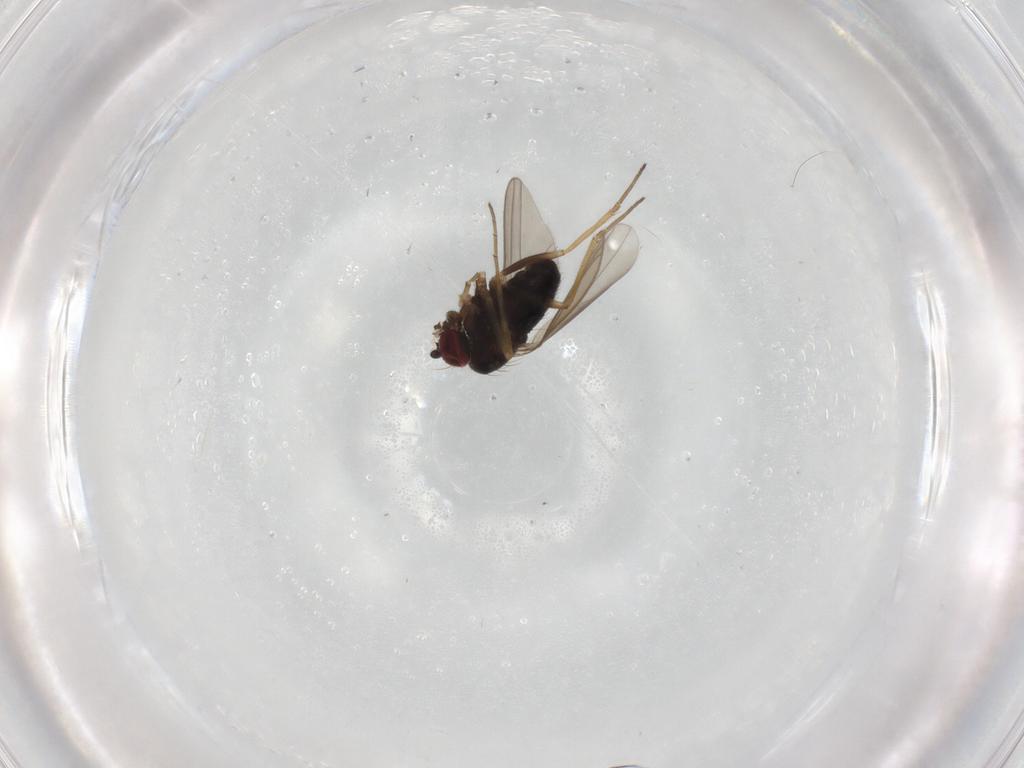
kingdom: Animalia
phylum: Arthropoda
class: Insecta
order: Diptera
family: Dolichopodidae
